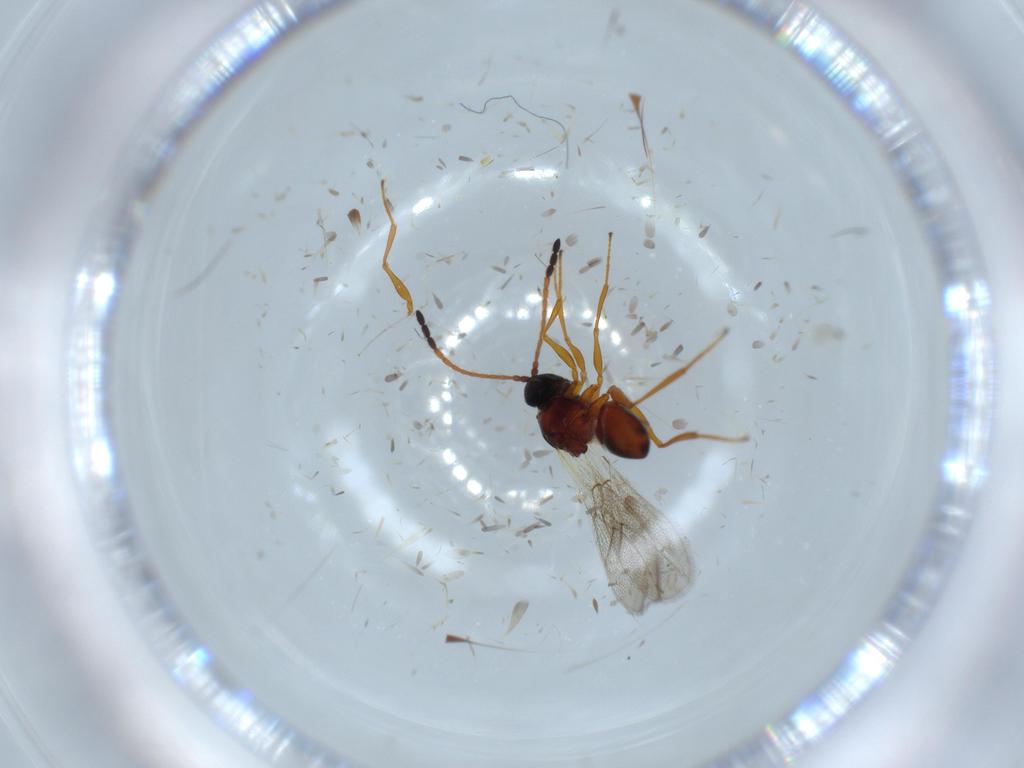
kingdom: Animalia
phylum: Arthropoda
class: Insecta
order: Hymenoptera
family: Figitidae
